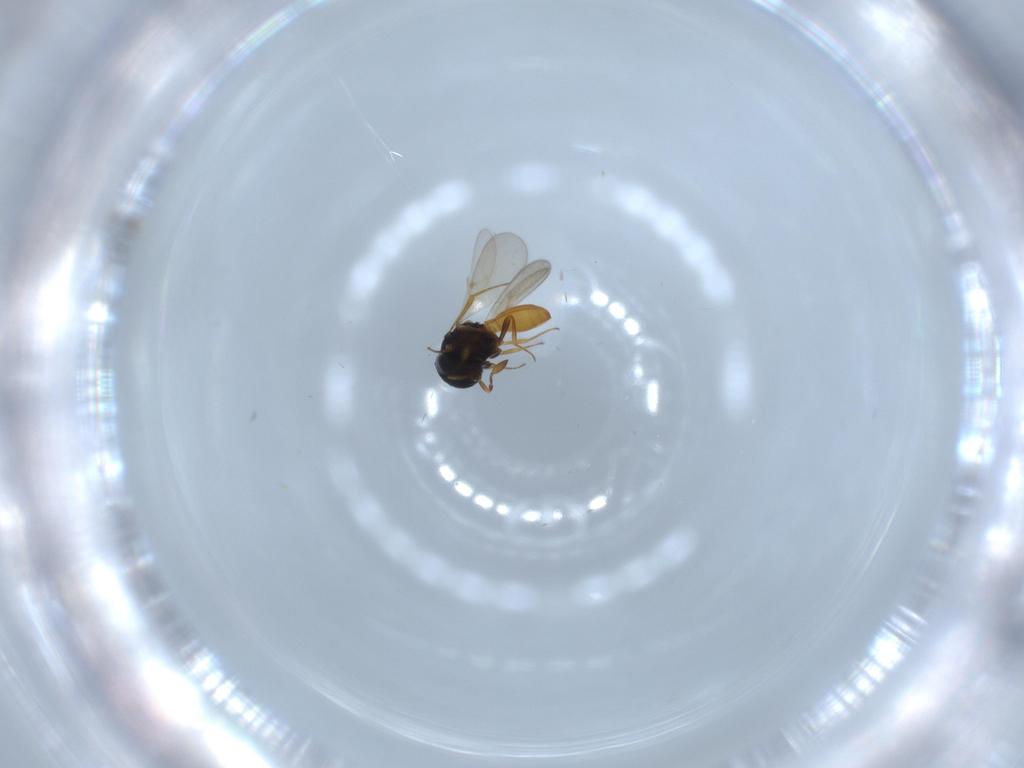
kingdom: Animalia
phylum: Arthropoda
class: Insecta
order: Hymenoptera
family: Scelionidae
